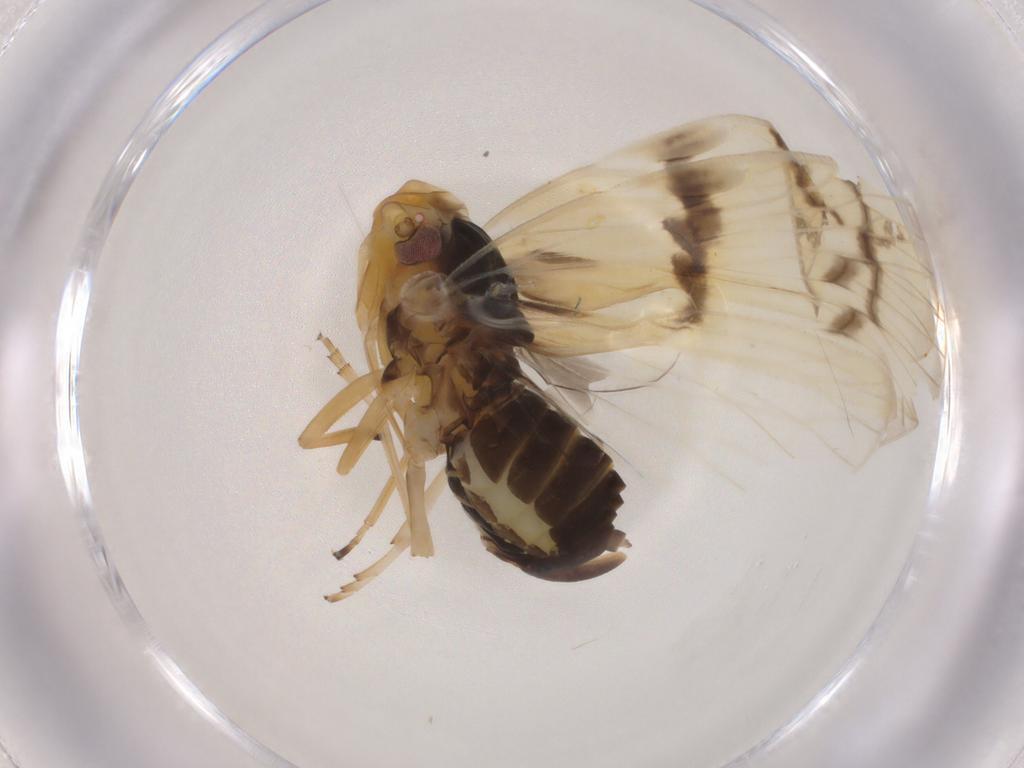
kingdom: Animalia
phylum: Arthropoda
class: Insecta
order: Hemiptera
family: Cixiidae
